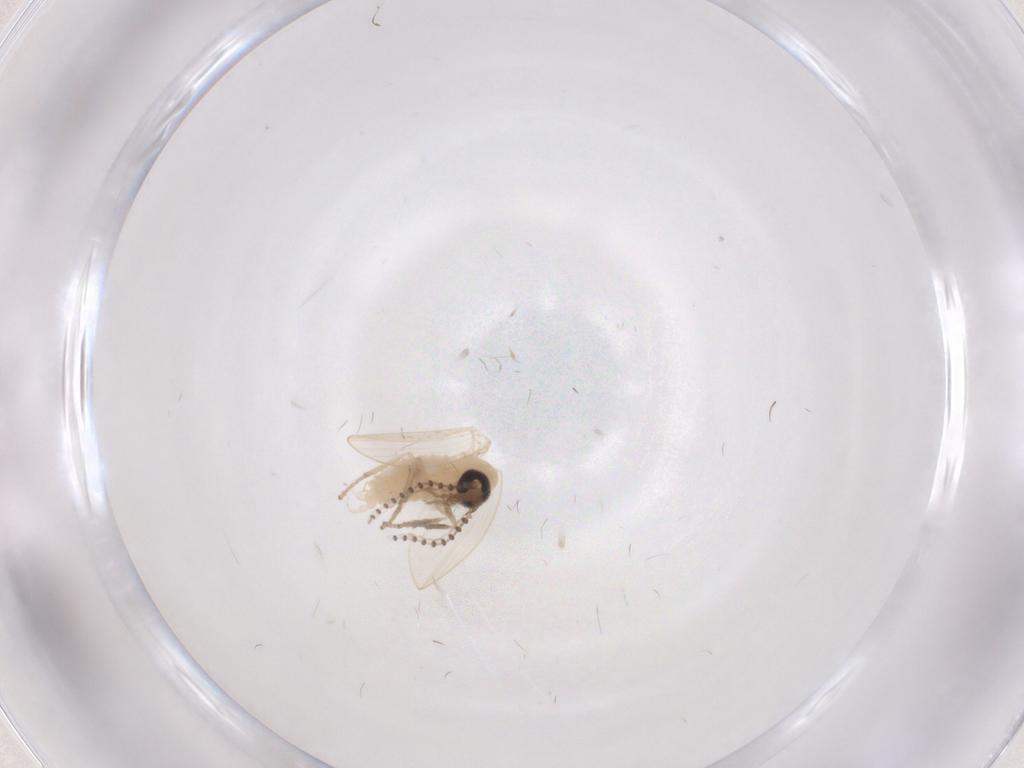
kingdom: Animalia
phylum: Arthropoda
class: Insecta
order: Diptera
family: Psychodidae
